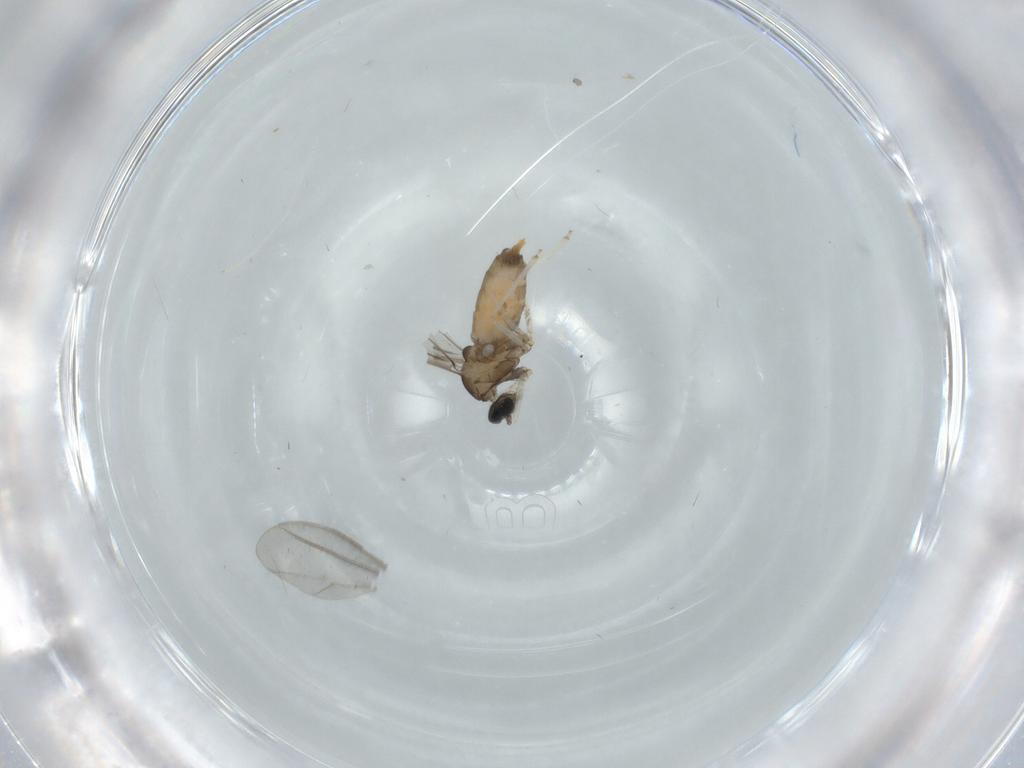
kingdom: Animalia
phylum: Arthropoda
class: Insecta
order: Diptera
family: Cecidomyiidae
